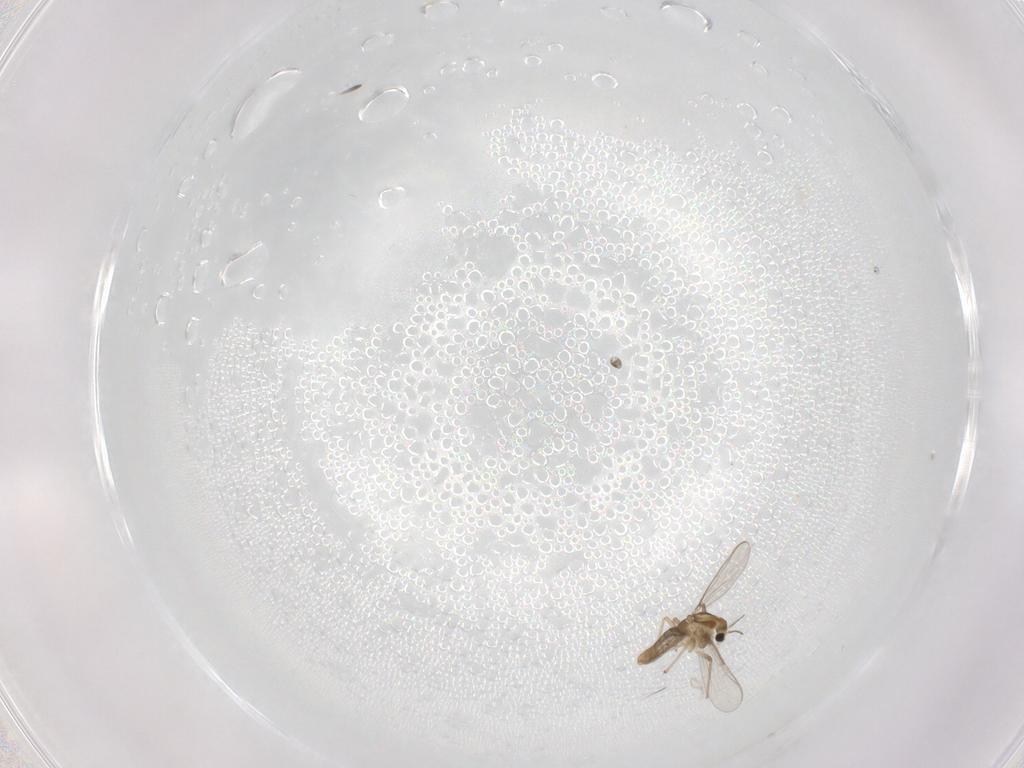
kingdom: Animalia
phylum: Arthropoda
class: Insecta
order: Diptera
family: Chironomidae
